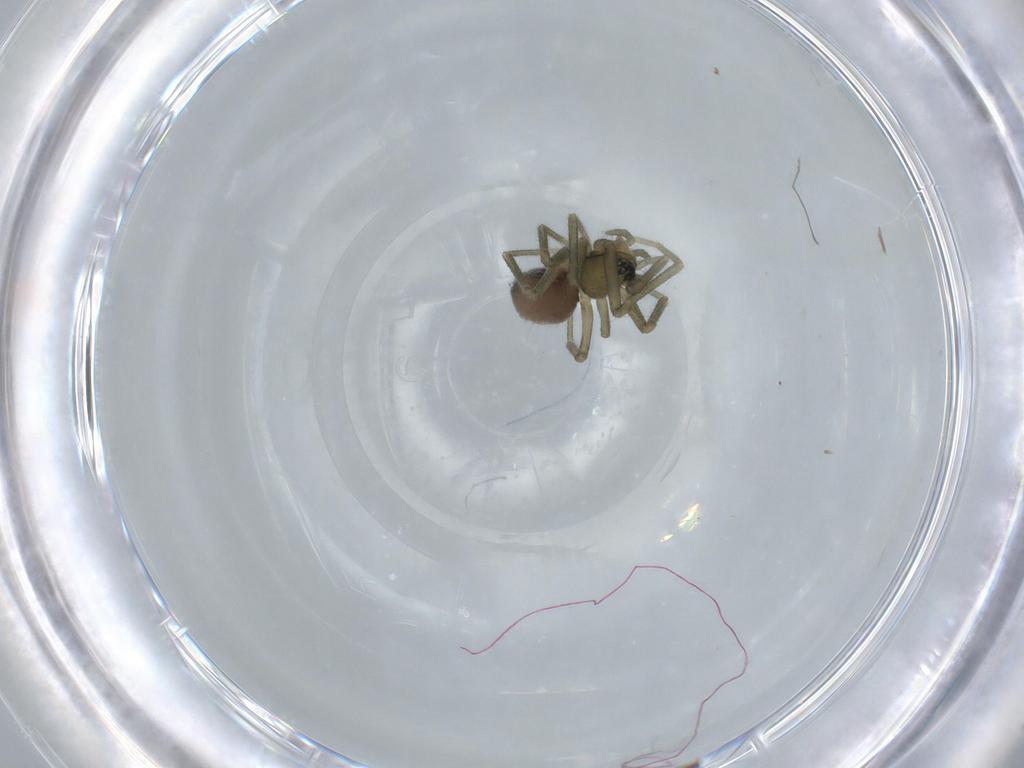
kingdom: Animalia
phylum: Arthropoda
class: Arachnida
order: Araneae
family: Linyphiidae
